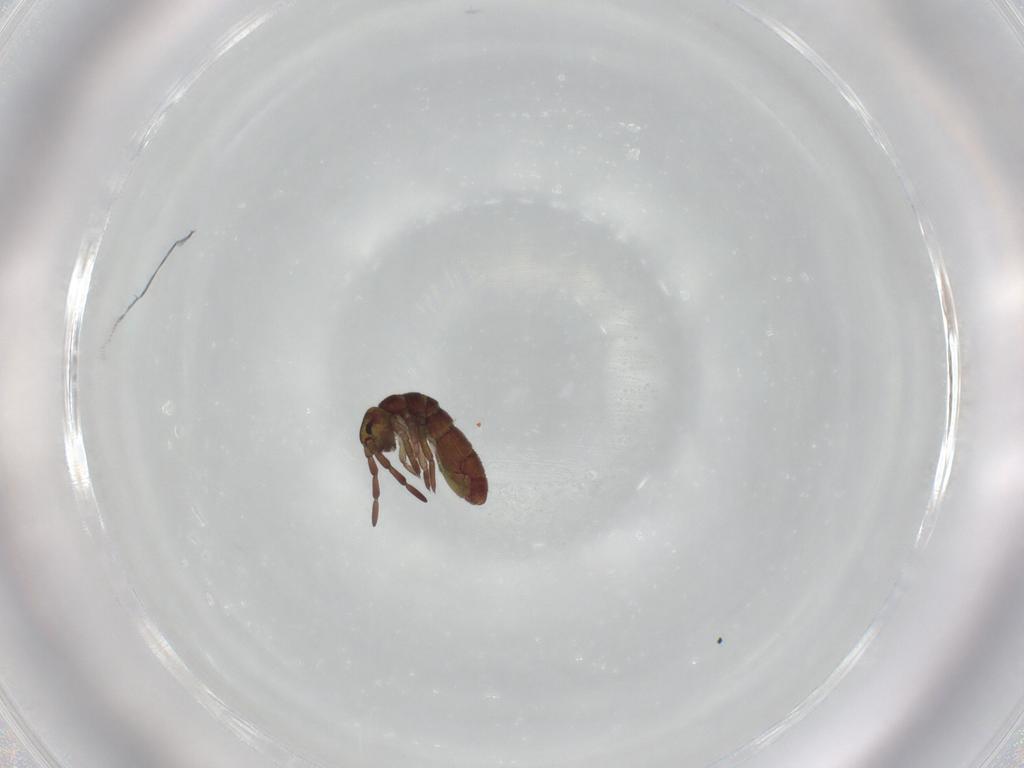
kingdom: Animalia
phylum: Arthropoda
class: Collembola
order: Entomobryomorpha
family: Isotomidae
